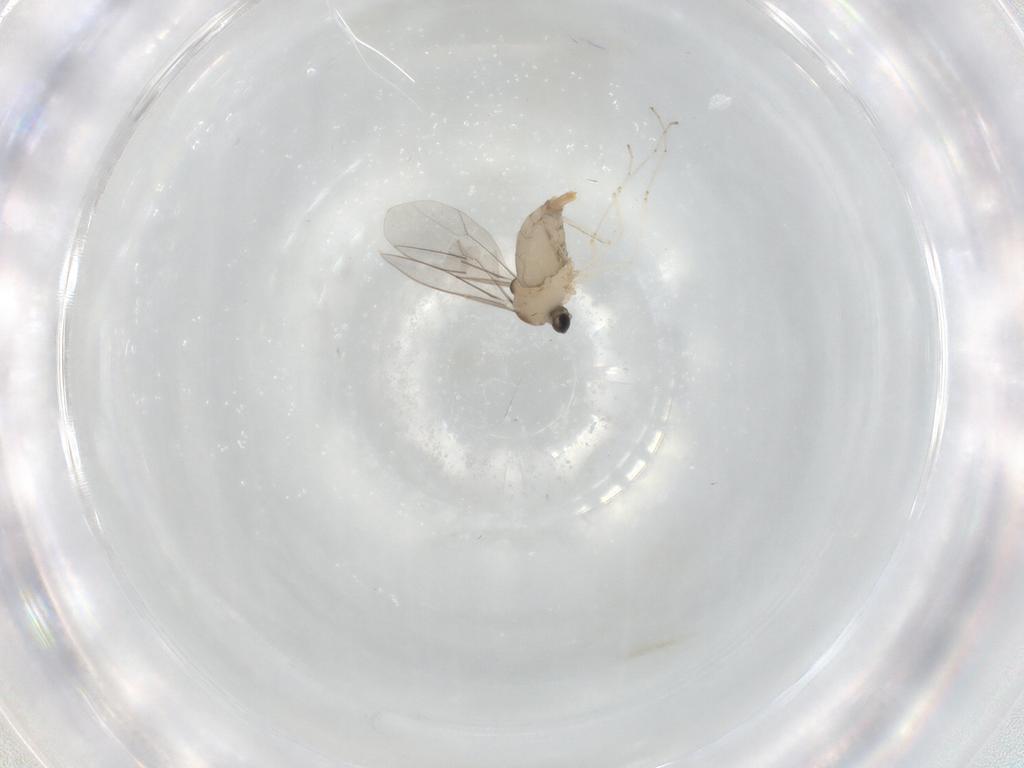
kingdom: Animalia
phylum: Arthropoda
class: Insecta
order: Diptera
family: Cecidomyiidae
